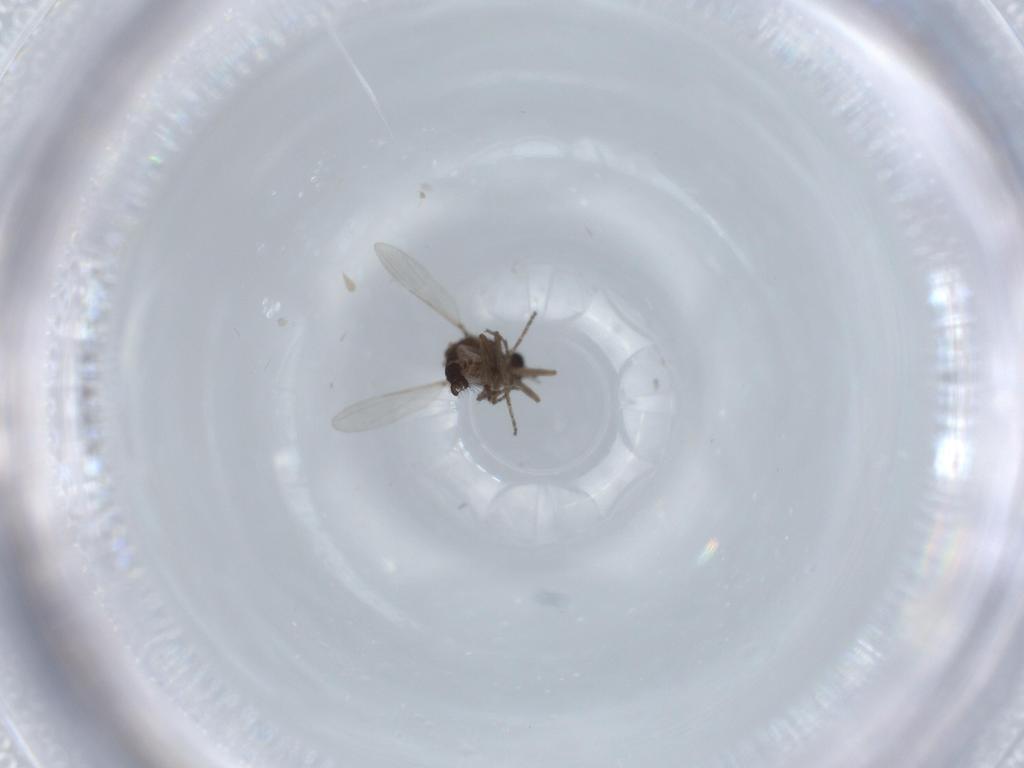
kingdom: Animalia
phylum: Arthropoda
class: Insecta
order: Diptera
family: Ceratopogonidae
